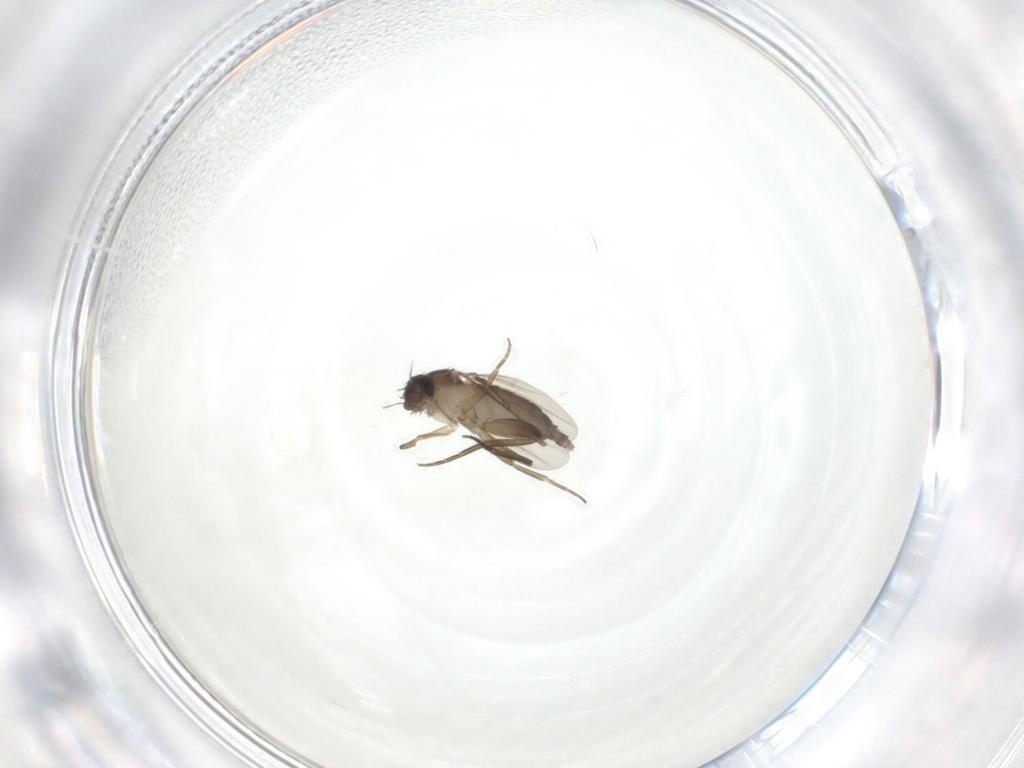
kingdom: Animalia
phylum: Arthropoda
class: Insecta
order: Diptera
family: Phoridae
